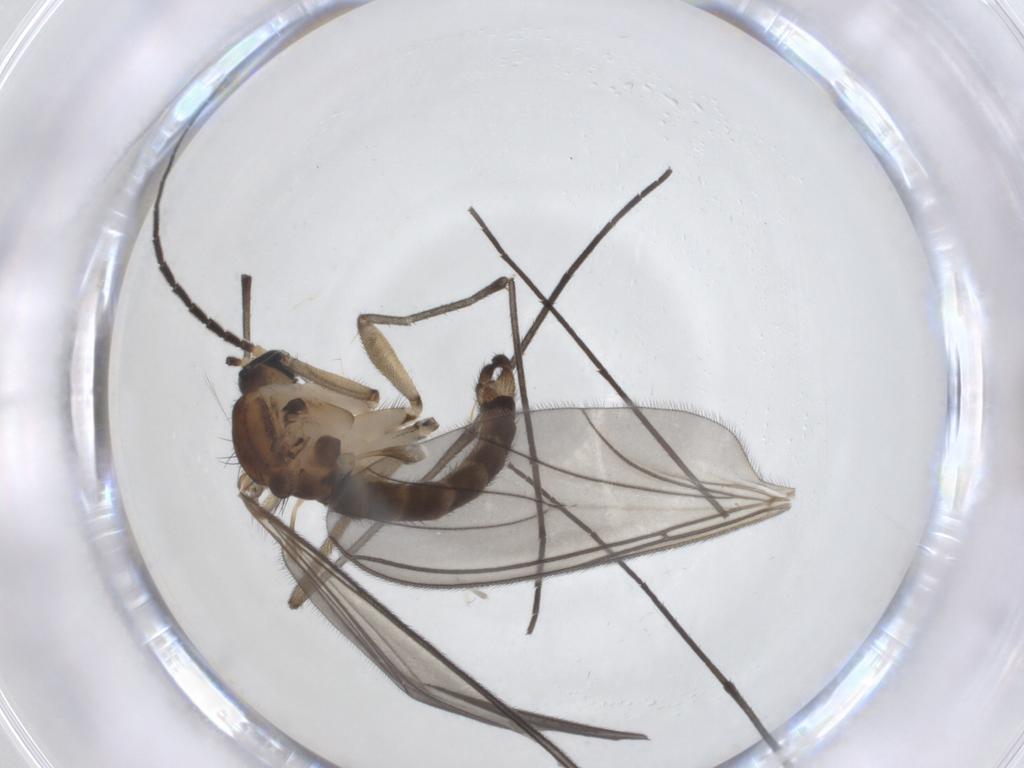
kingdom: Animalia
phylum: Arthropoda
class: Insecta
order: Diptera
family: Sciaridae
